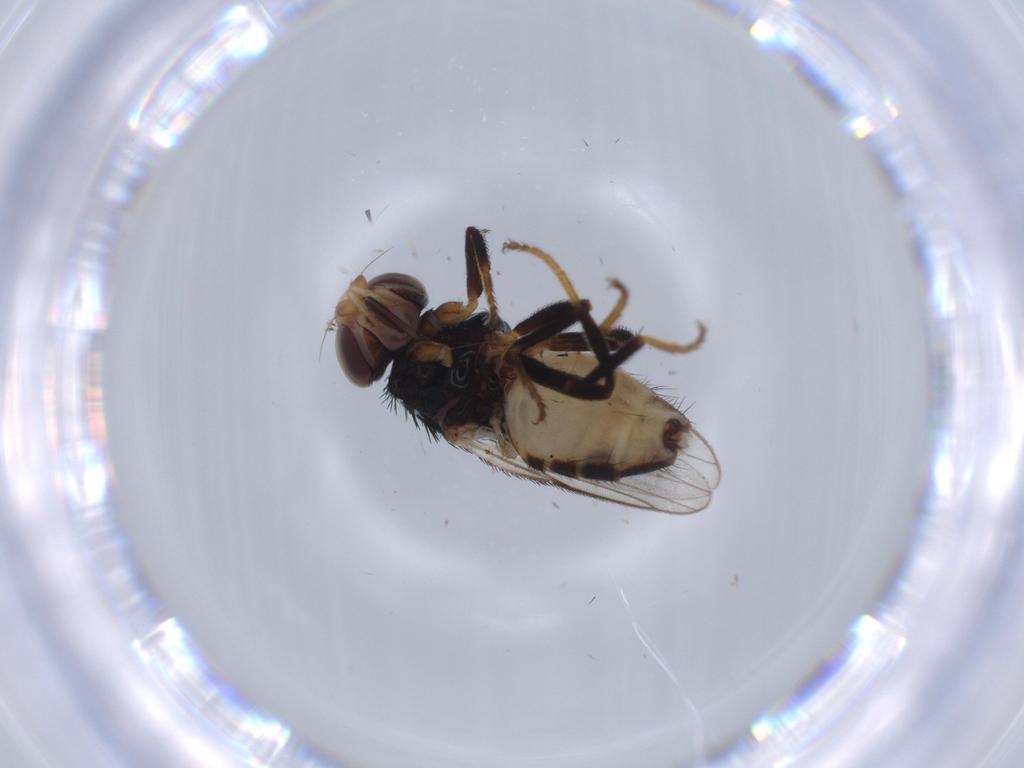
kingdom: Animalia
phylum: Arthropoda
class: Insecta
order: Diptera
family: Chloropidae
